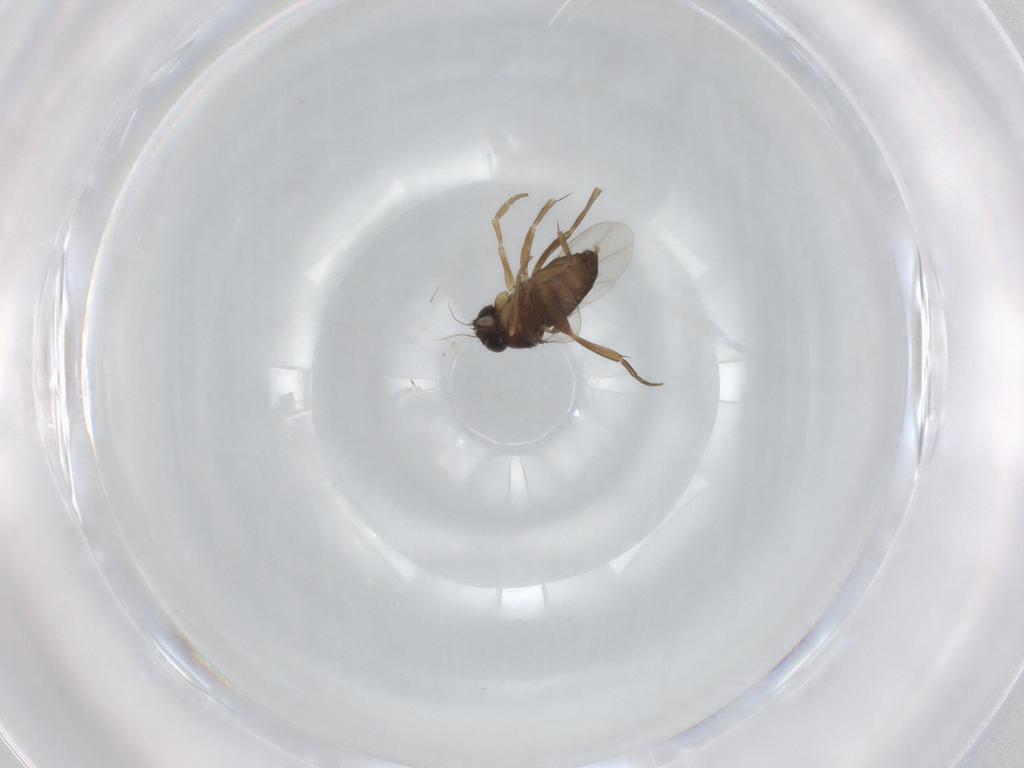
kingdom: Animalia
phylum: Arthropoda
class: Insecta
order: Diptera
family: Phoridae
